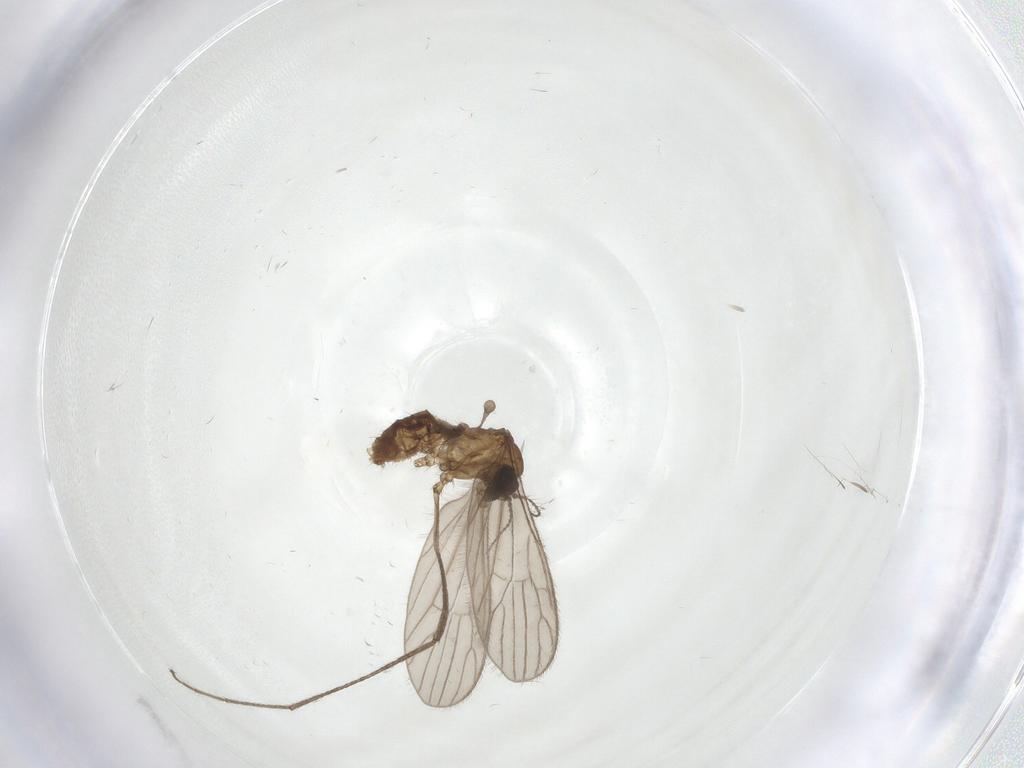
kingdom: Animalia
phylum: Arthropoda
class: Insecta
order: Diptera
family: Limoniidae
